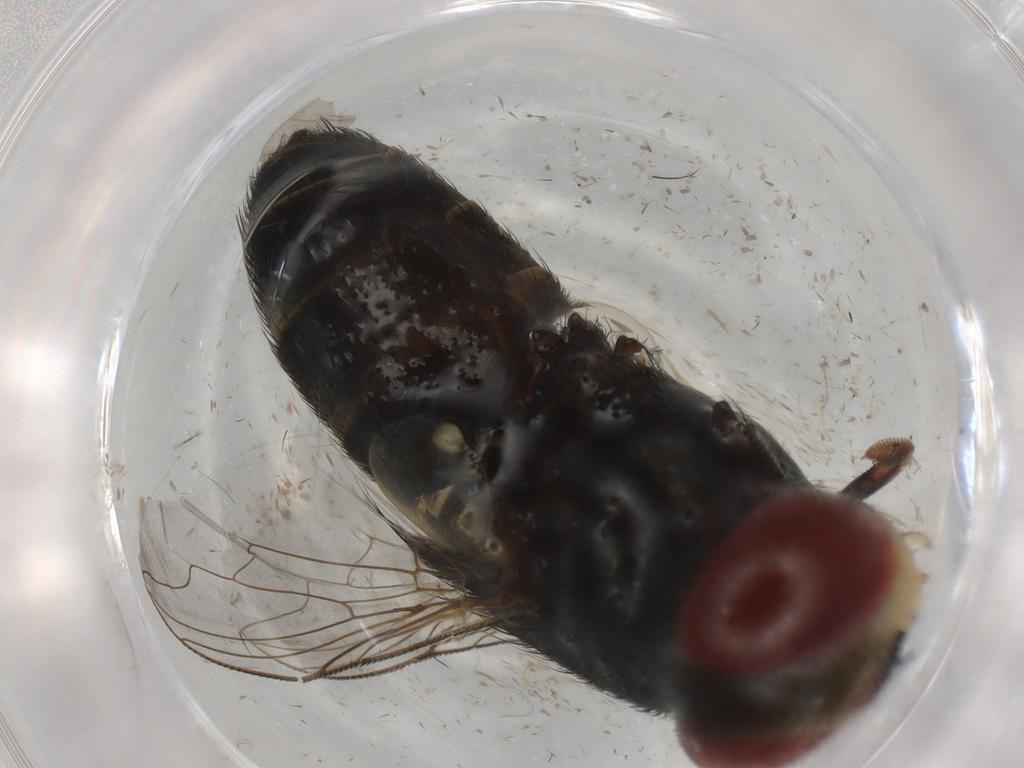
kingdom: Animalia
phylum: Arthropoda
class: Insecta
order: Diptera
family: Sarcophagidae
